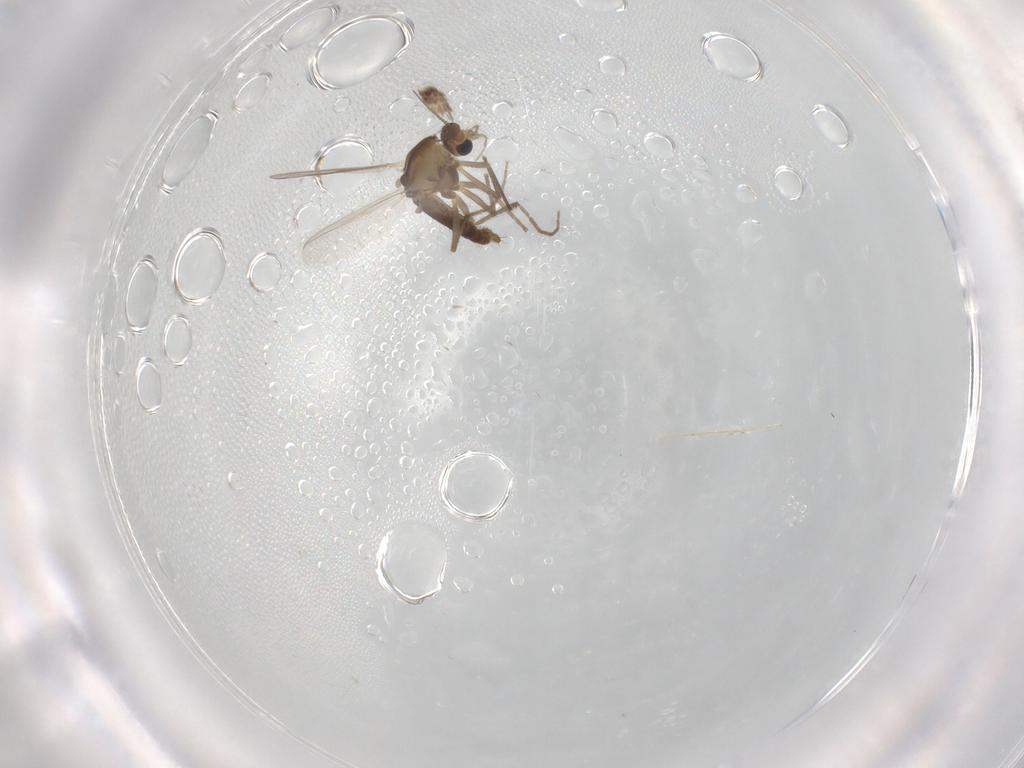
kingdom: Animalia
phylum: Arthropoda
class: Insecta
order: Diptera
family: Chironomidae
